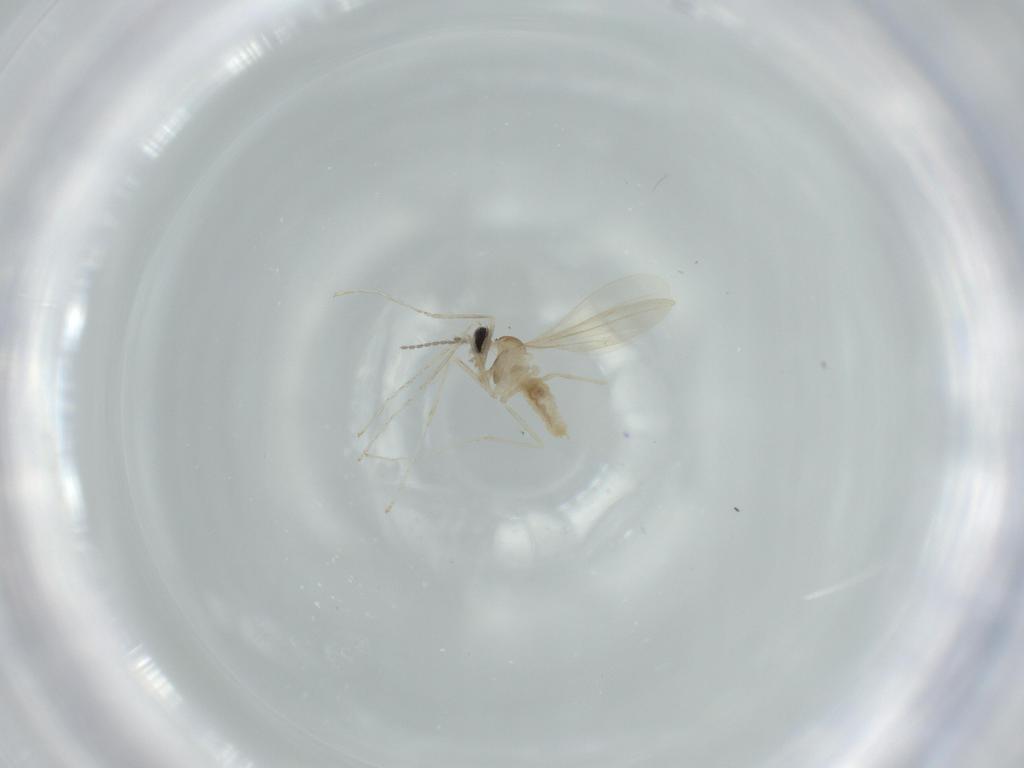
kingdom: Animalia
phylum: Arthropoda
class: Insecta
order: Diptera
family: Cecidomyiidae
